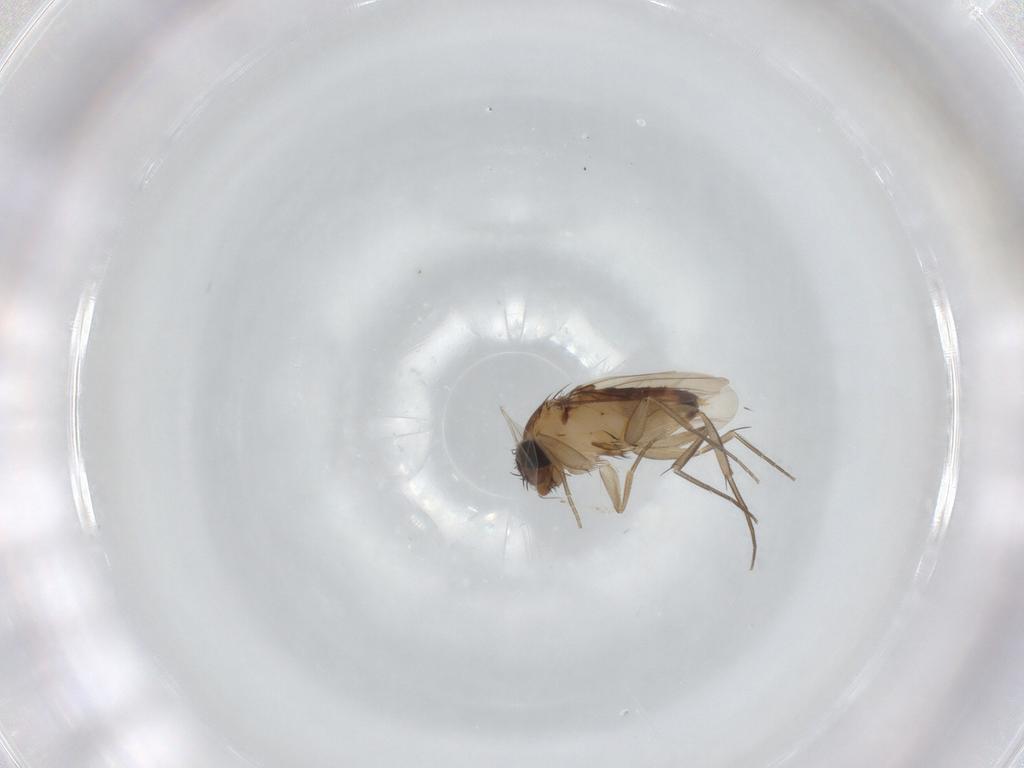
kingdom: Animalia
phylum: Arthropoda
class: Insecta
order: Diptera
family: Phoridae
